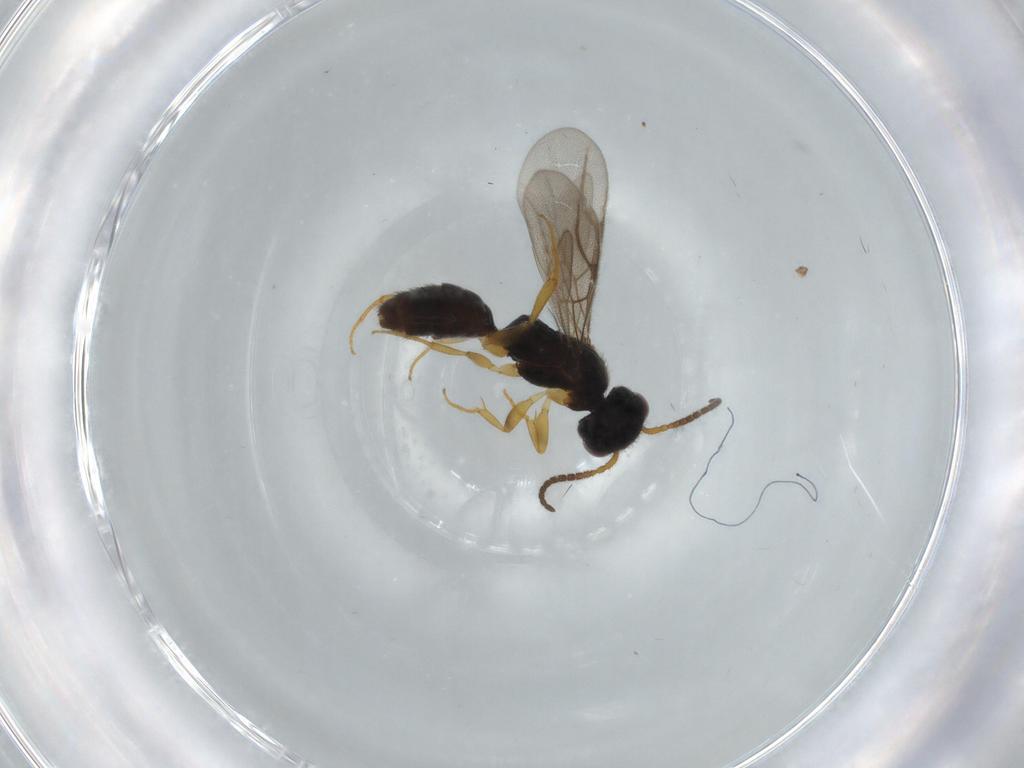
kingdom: Animalia
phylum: Arthropoda
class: Insecta
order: Hymenoptera
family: Bethylidae
